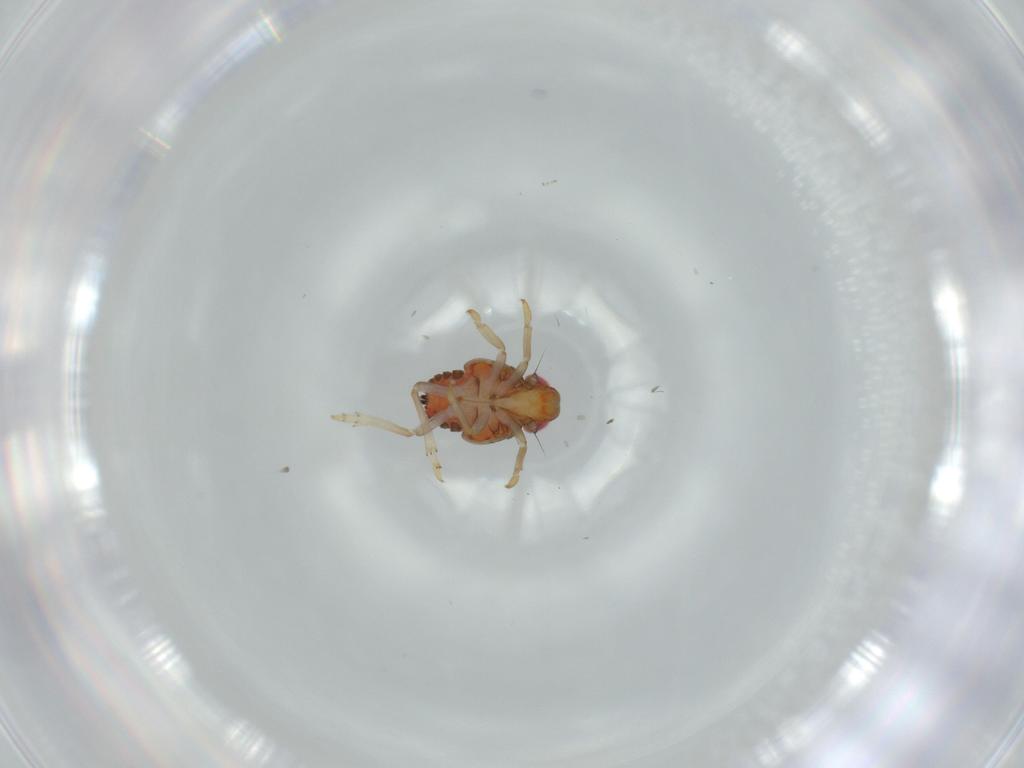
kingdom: Animalia
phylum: Arthropoda
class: Insecta
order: Hemiptera
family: Issidae
